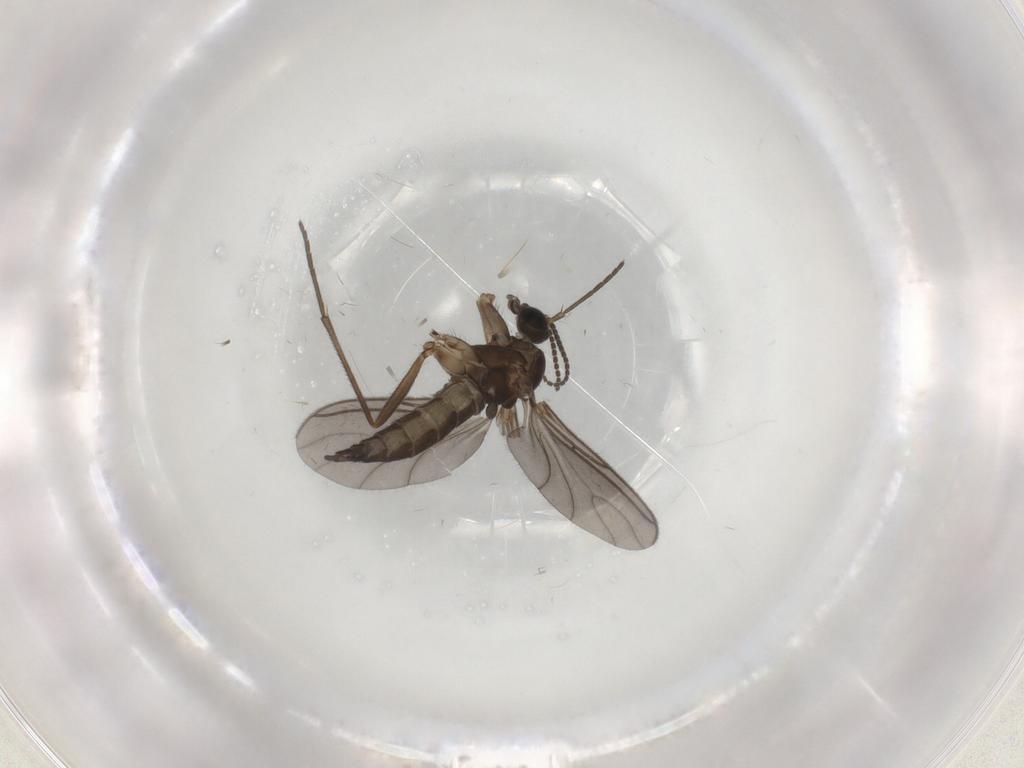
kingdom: Animalia
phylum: Arthropoda
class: Insecta
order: Diptera
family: Sciaridae
